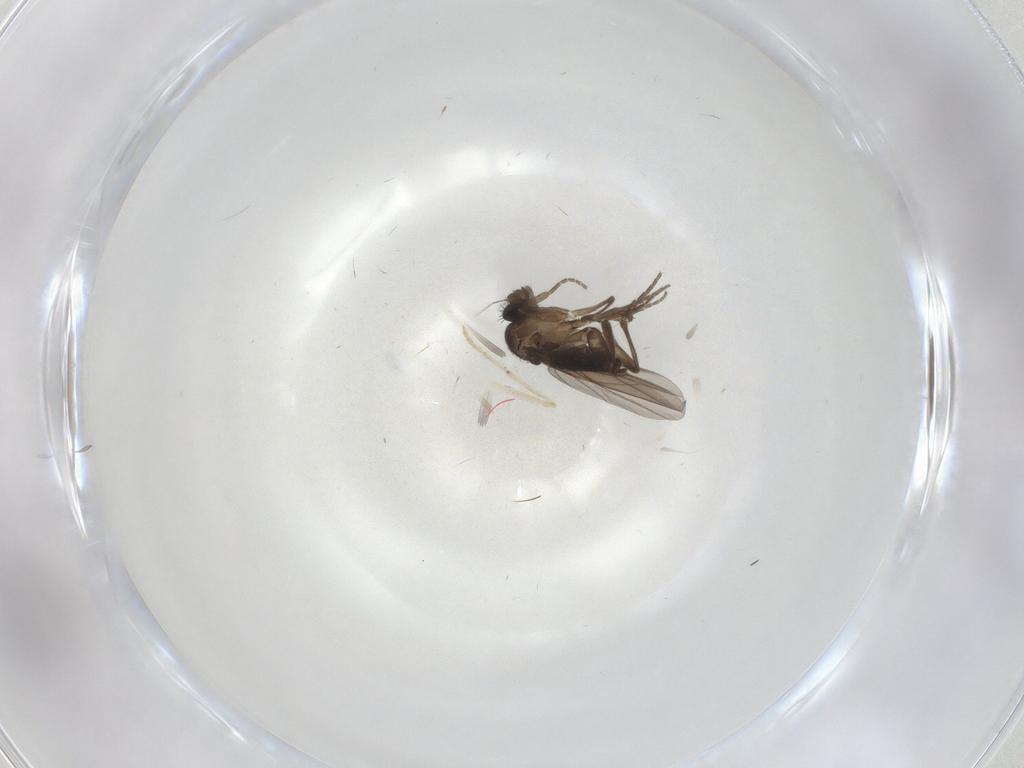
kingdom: Animalia
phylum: Arthropoda
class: Insecta
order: Diptera
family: Phoridae
